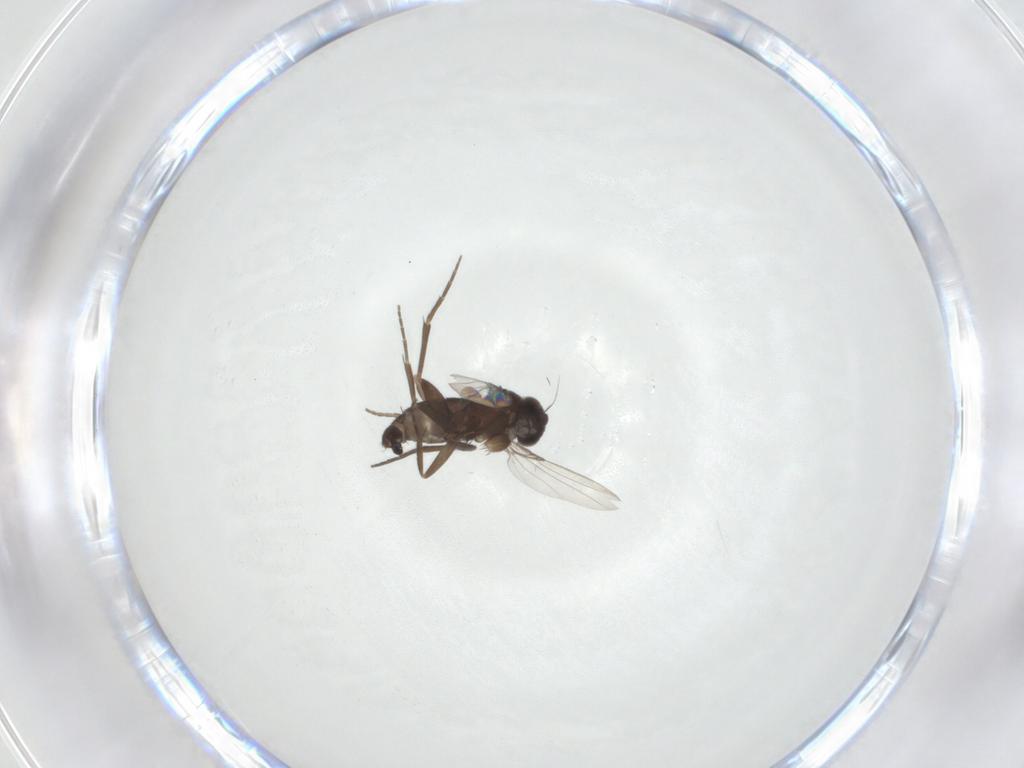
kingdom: Animalia
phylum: Arthropoda
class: Insecta
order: Diptera
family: Phoridae
